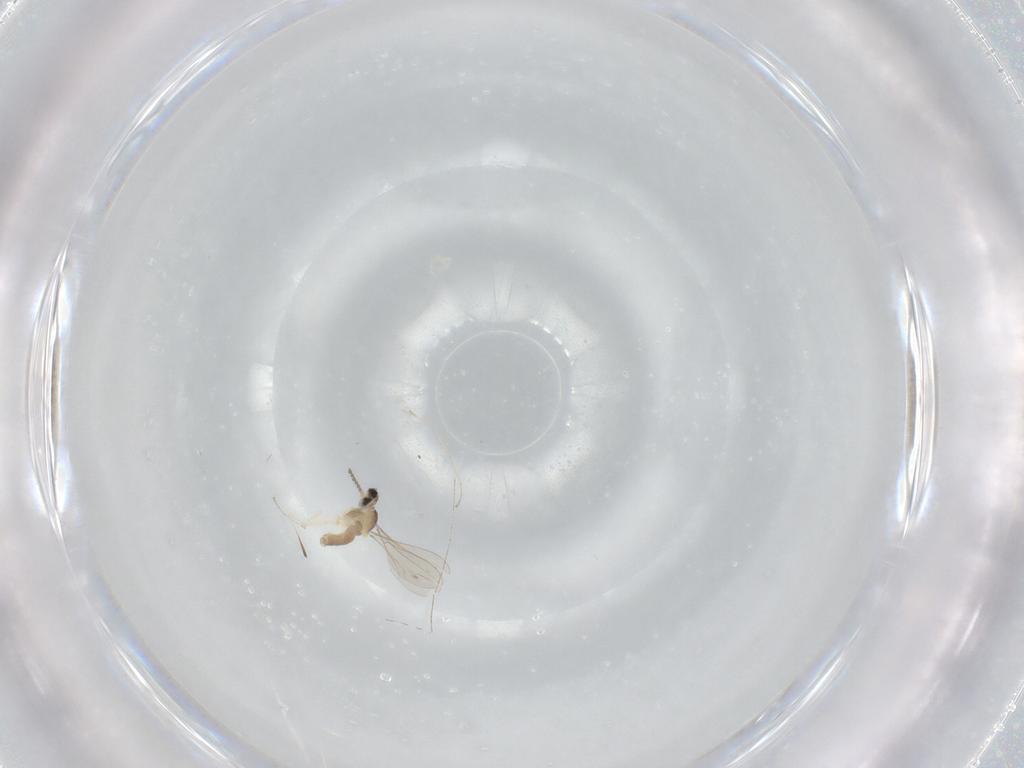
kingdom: Animalia
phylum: Arthropoda
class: Insecta
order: Diptera
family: Cecidomyiidae
